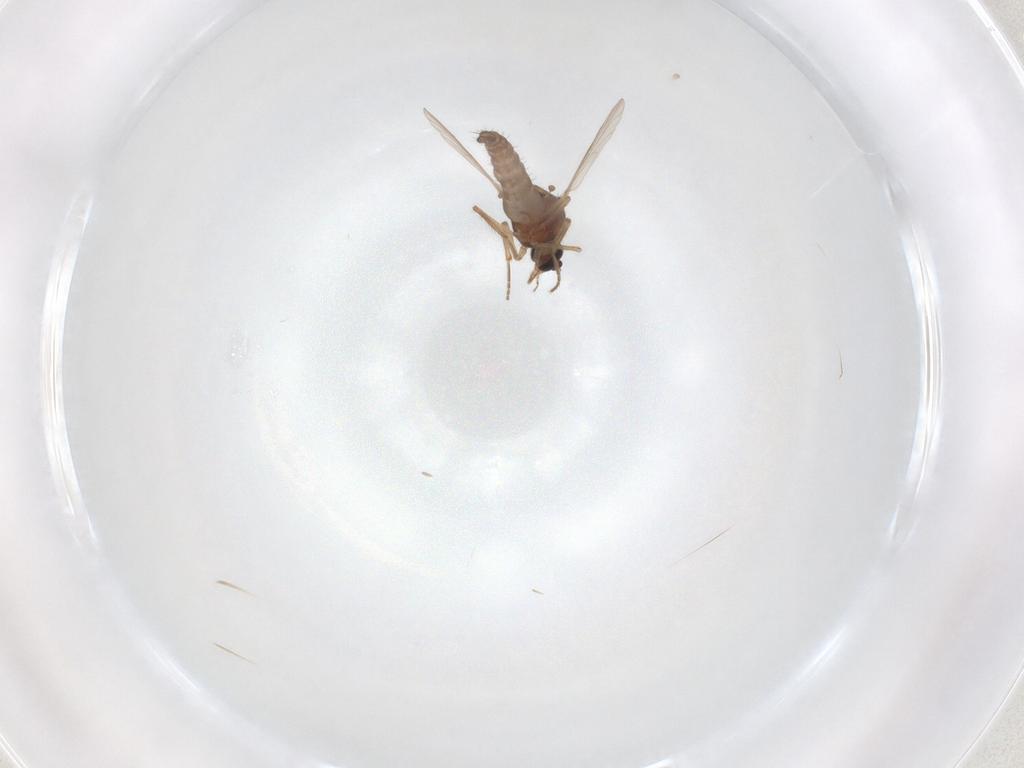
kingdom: Animalia
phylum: Arthropoda
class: Insecta
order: Diptera
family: Ceratopogonidae
